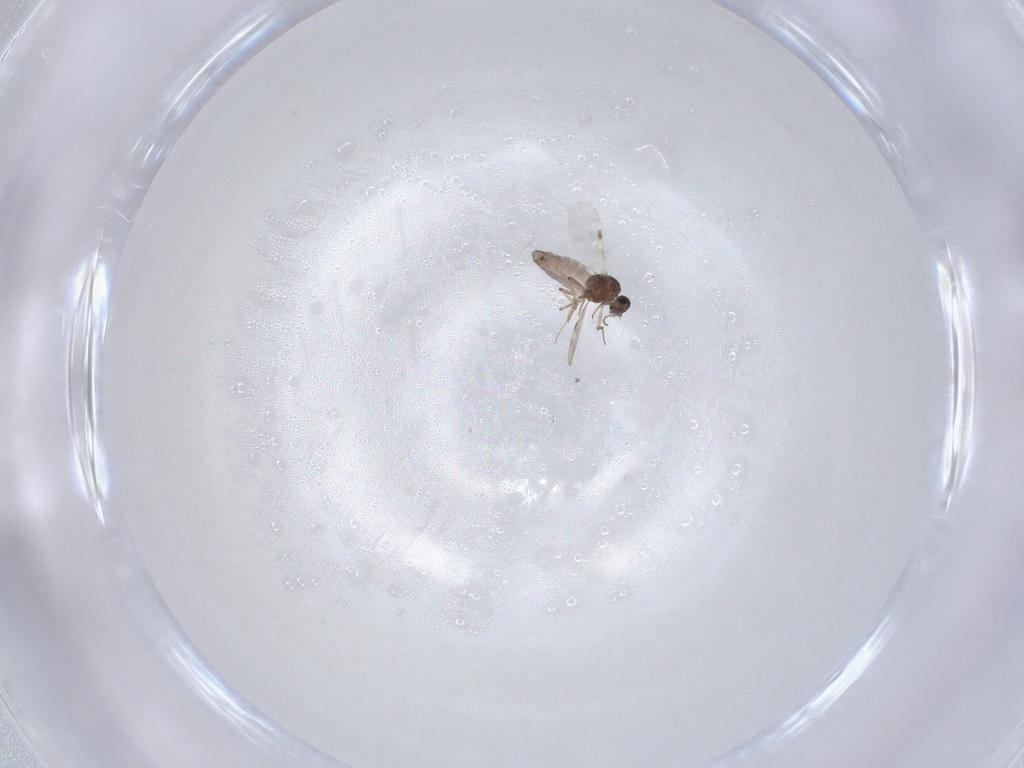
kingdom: Animalia
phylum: Arthropoda
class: Insecta
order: Diptera
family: Chironomidae
